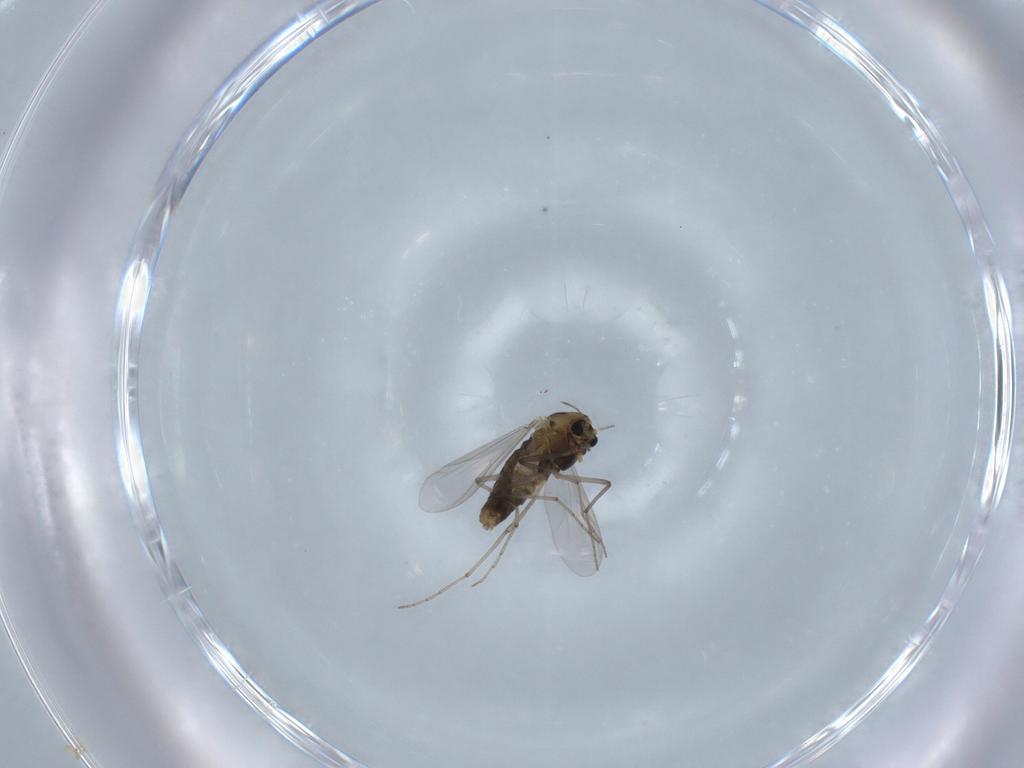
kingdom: Animalia
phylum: Arthropoda
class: Insecta
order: Diptera
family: Chironomidae
